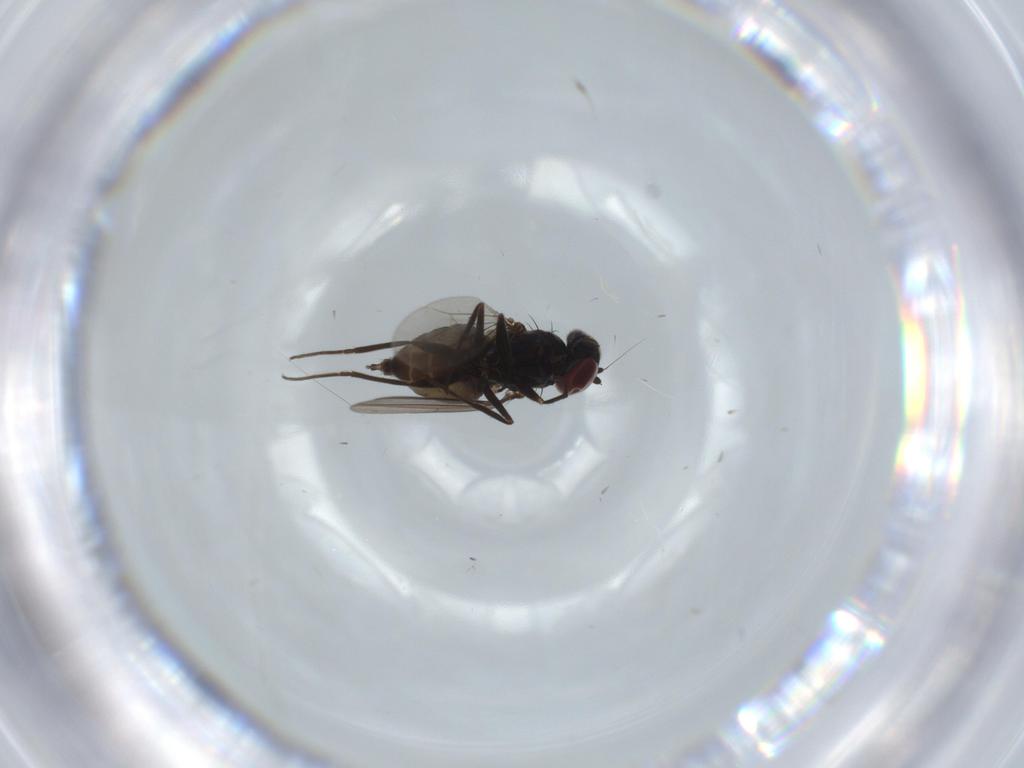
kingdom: Animalia
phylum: Arthropoda
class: Insecta
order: Diptera
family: Dolichopodidae
